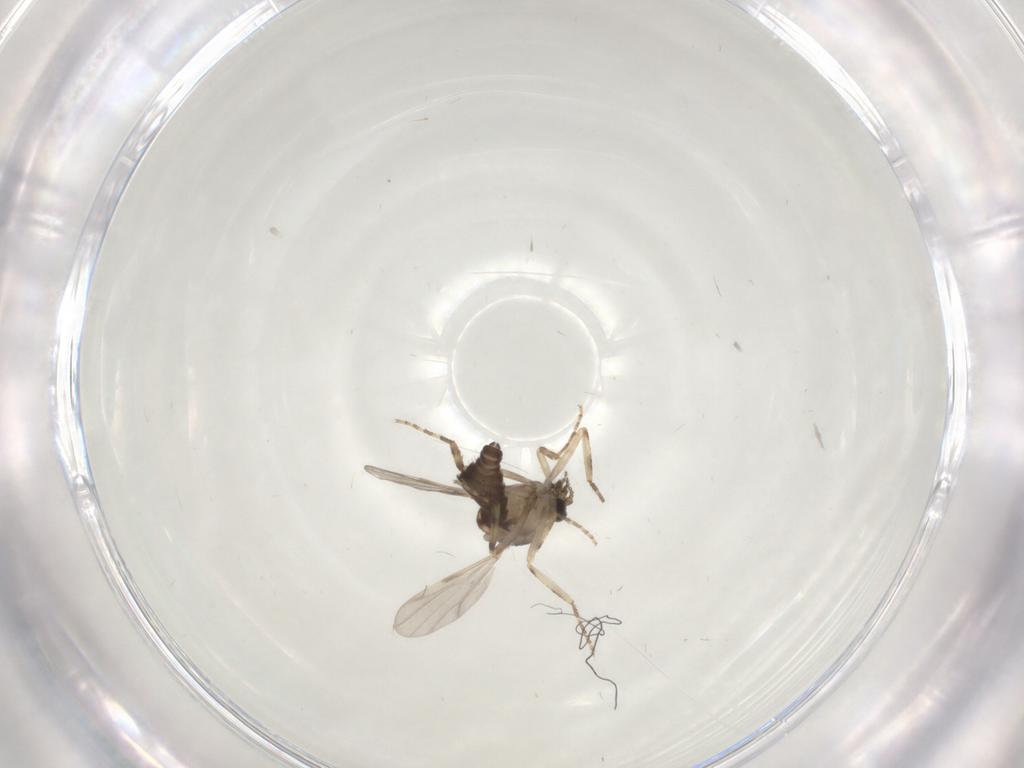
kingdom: Animalia
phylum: Arthropoda
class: Insecta
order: Diptera
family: Ceratopogonidae
